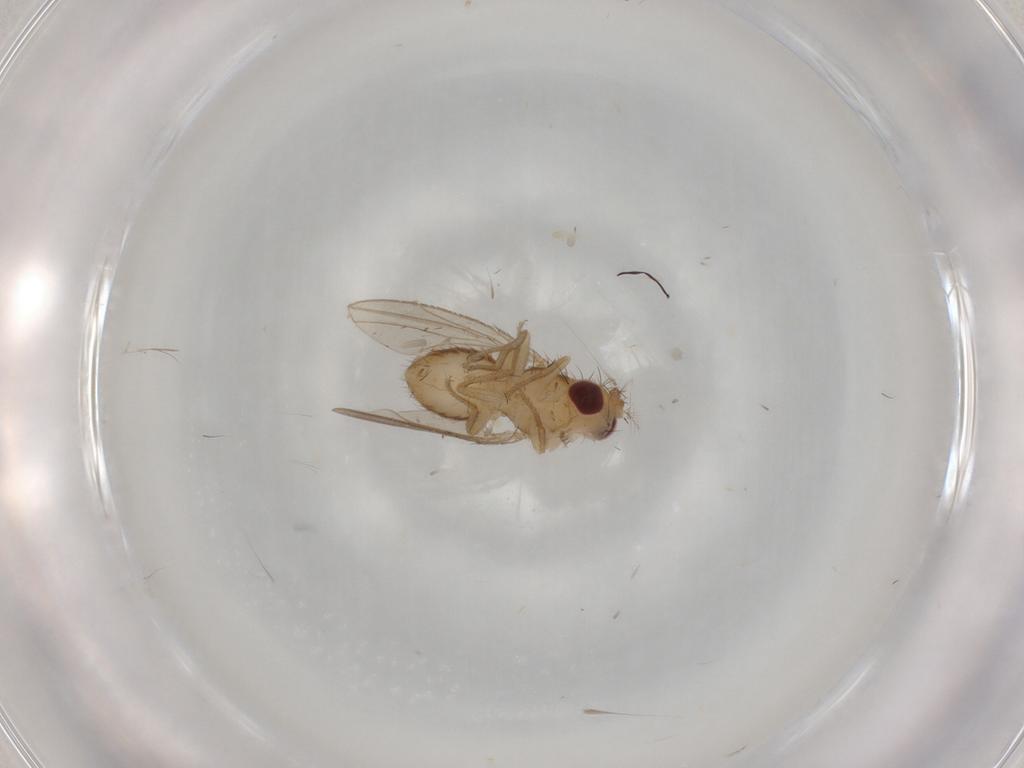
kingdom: Animalia
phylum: Arthropoda
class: Insecta
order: Diptera
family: Drosophilidae
